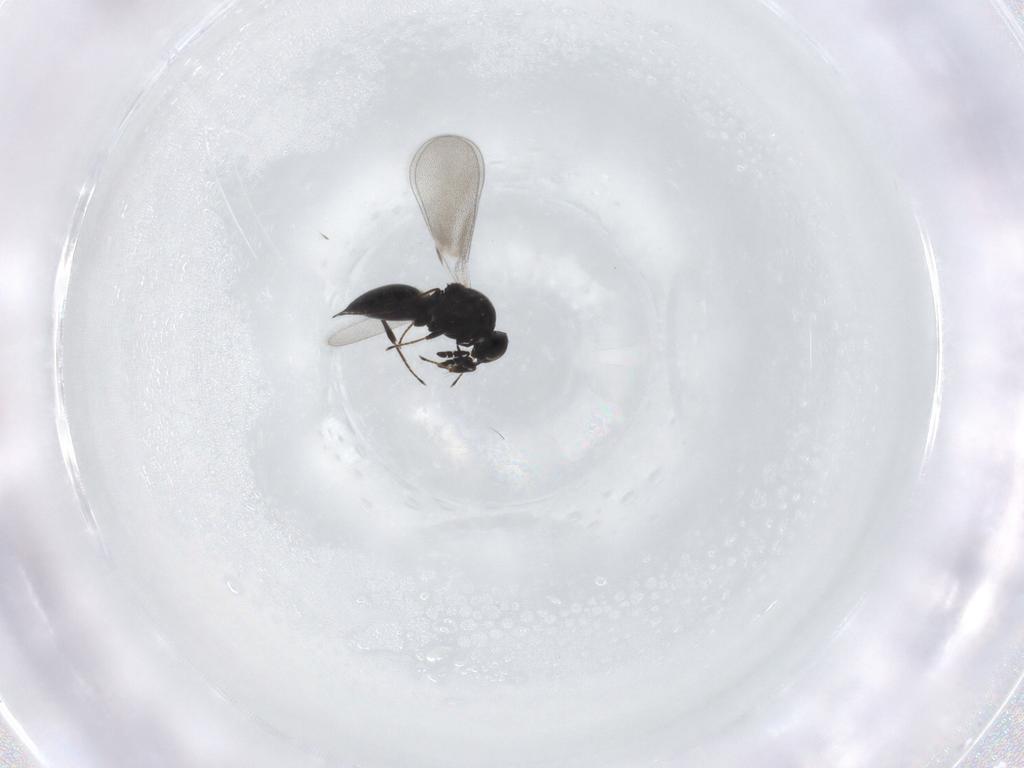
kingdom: Animalia
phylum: Arthropoda
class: Insecta
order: Hymenoptera
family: Platygastridae
